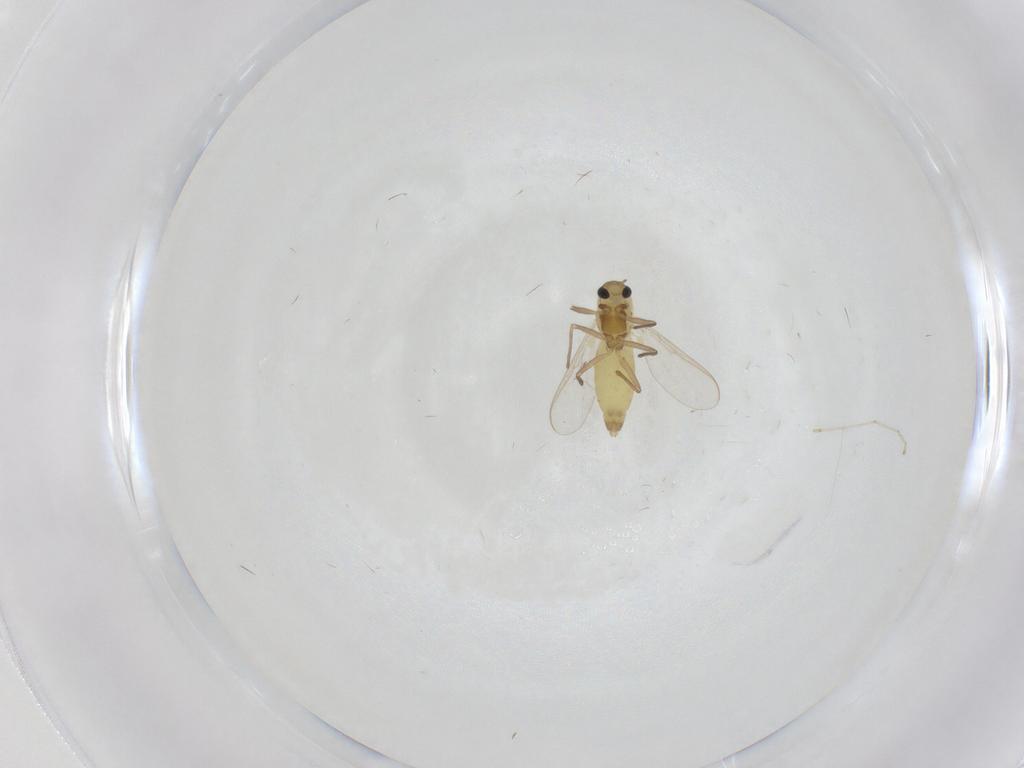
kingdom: Animalia
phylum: Arthropoda
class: Insecta
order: Diptera
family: Chironomidae
